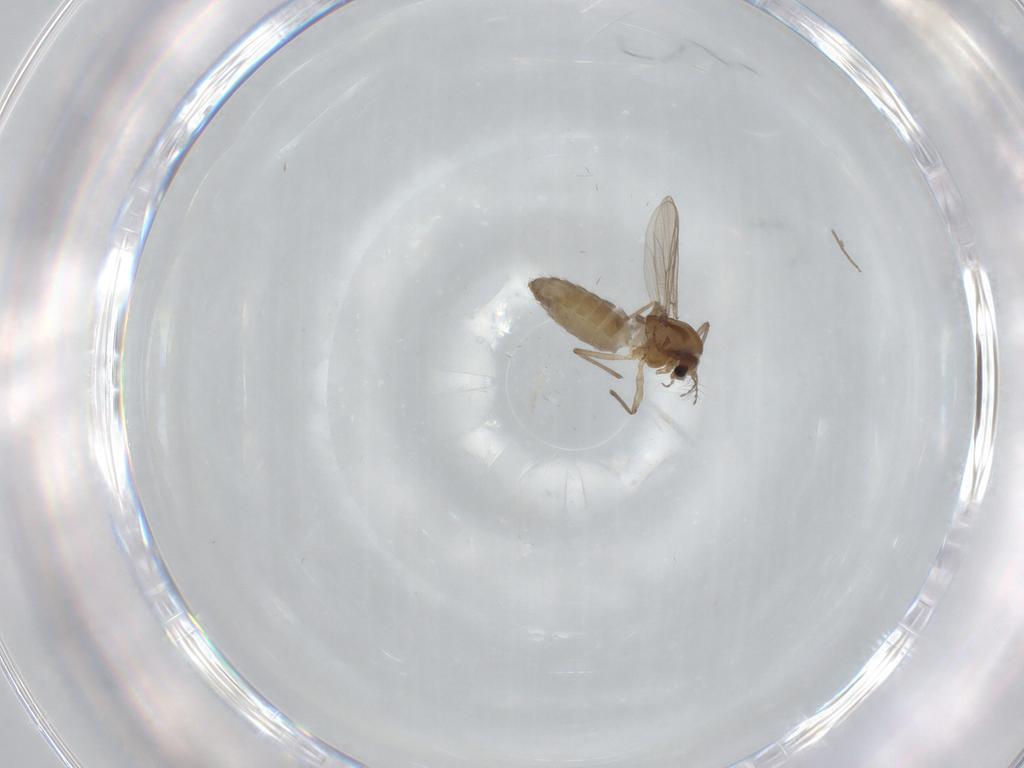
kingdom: Animalia
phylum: Arthropoda
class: Insecta
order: Diptera
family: Chironomidae
